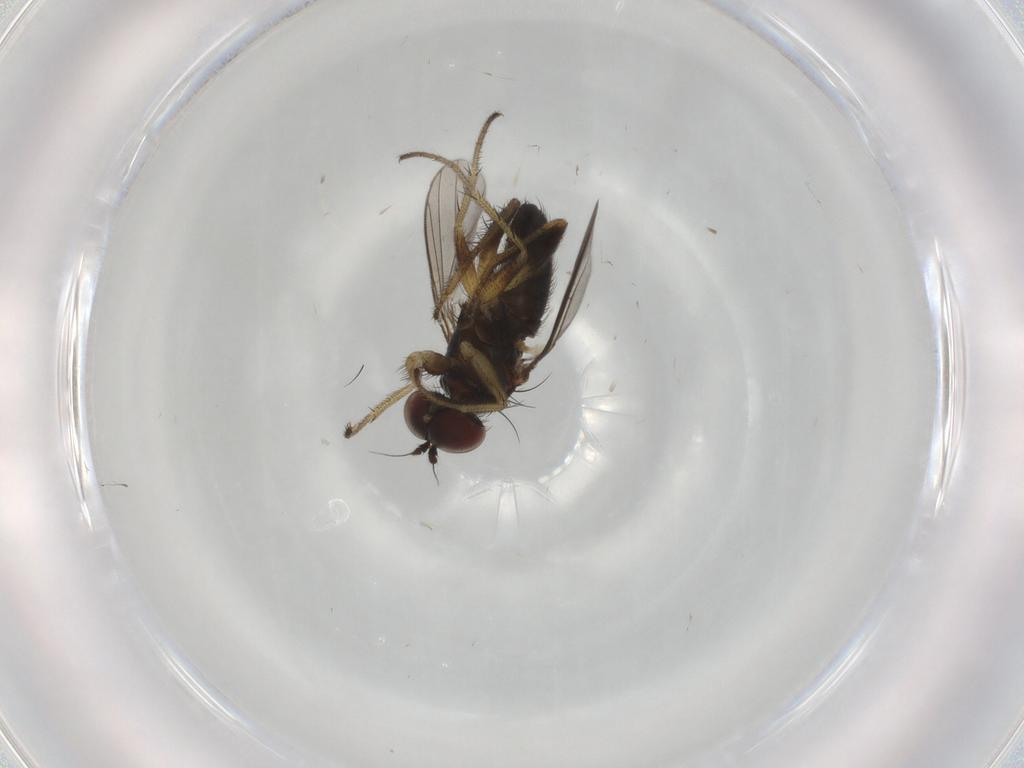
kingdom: Animalia
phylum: Arthropoda
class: Insecta
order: Diptera
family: Dolichopodidae
